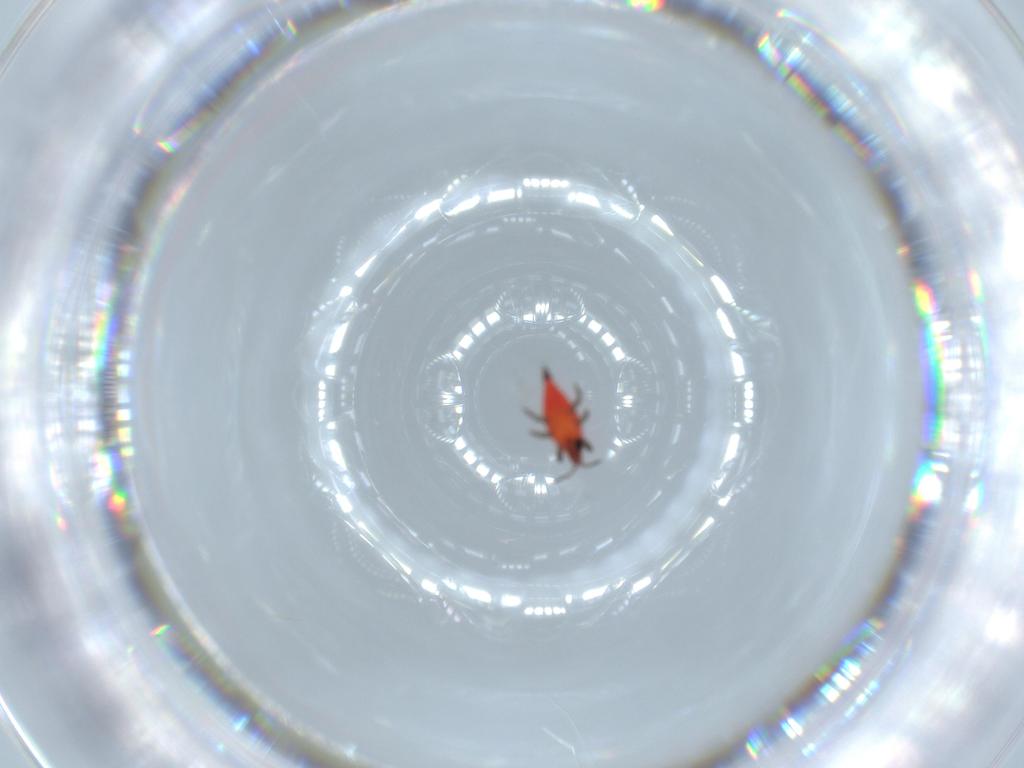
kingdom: Animalia
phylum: Arthropoda
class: Insecta
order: Thysanoptera
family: Phlaeothripidae
